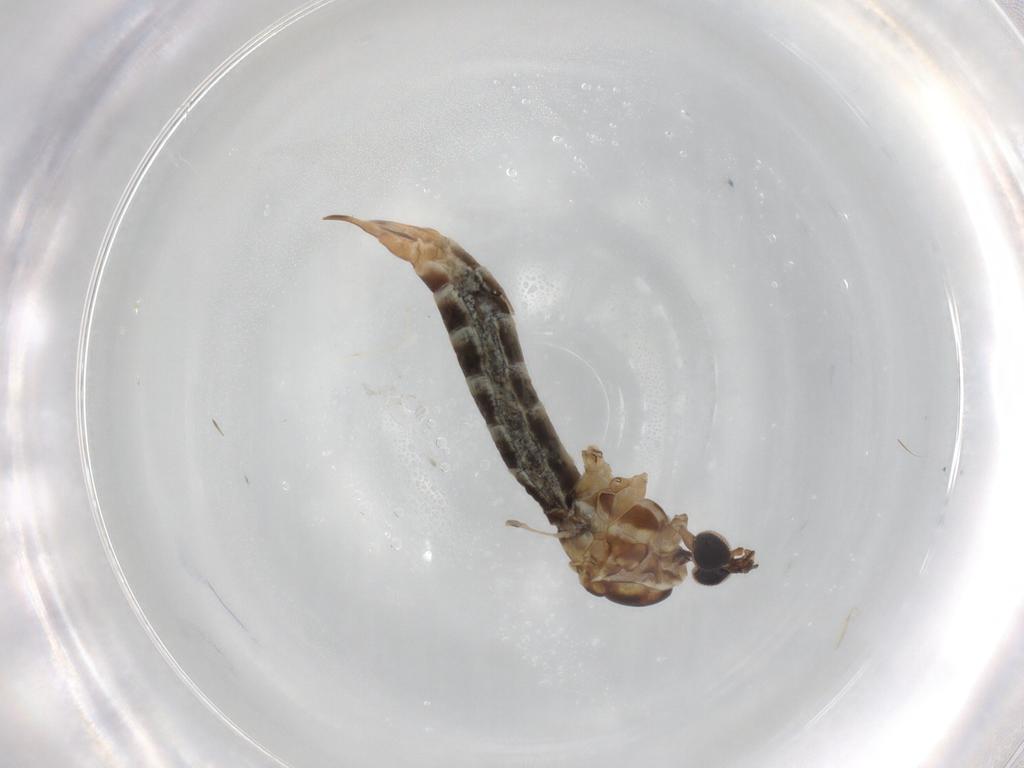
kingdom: Animalia
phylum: Arthropoda
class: Insecta
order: Diptera
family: Limoniidae
